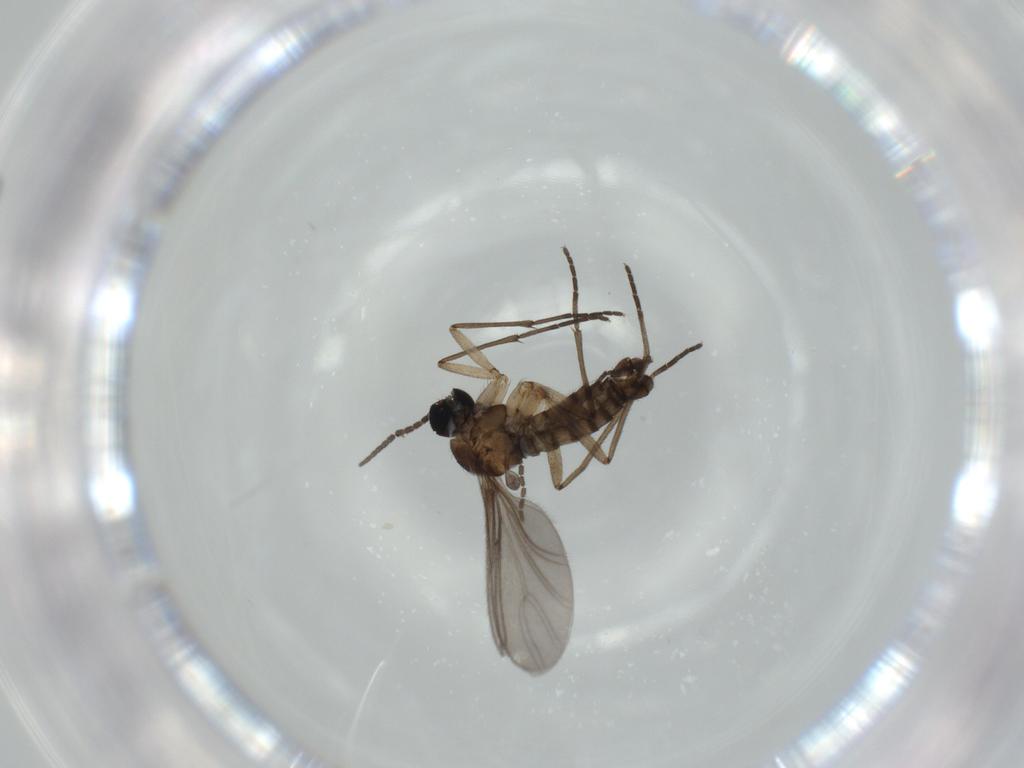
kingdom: Animalia
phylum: Arthropoda
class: Insecta
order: Diptera
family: Sciaridae
